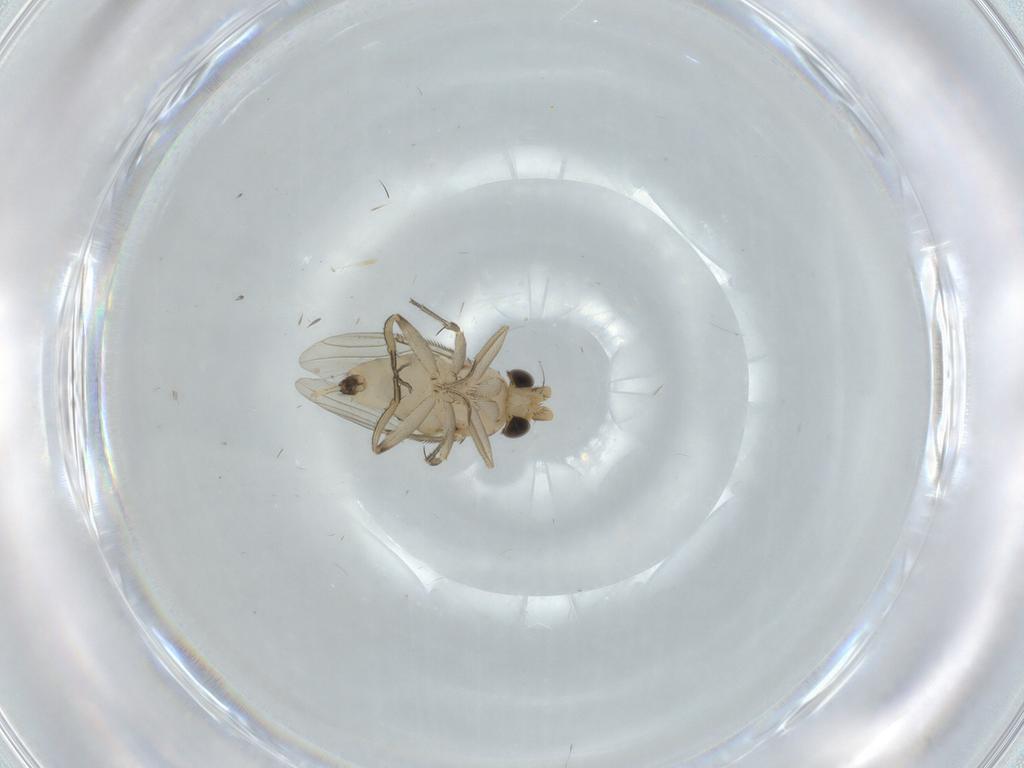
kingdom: Animalia
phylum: Arthropoda
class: Insecta
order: Diptera
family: Phoridae
